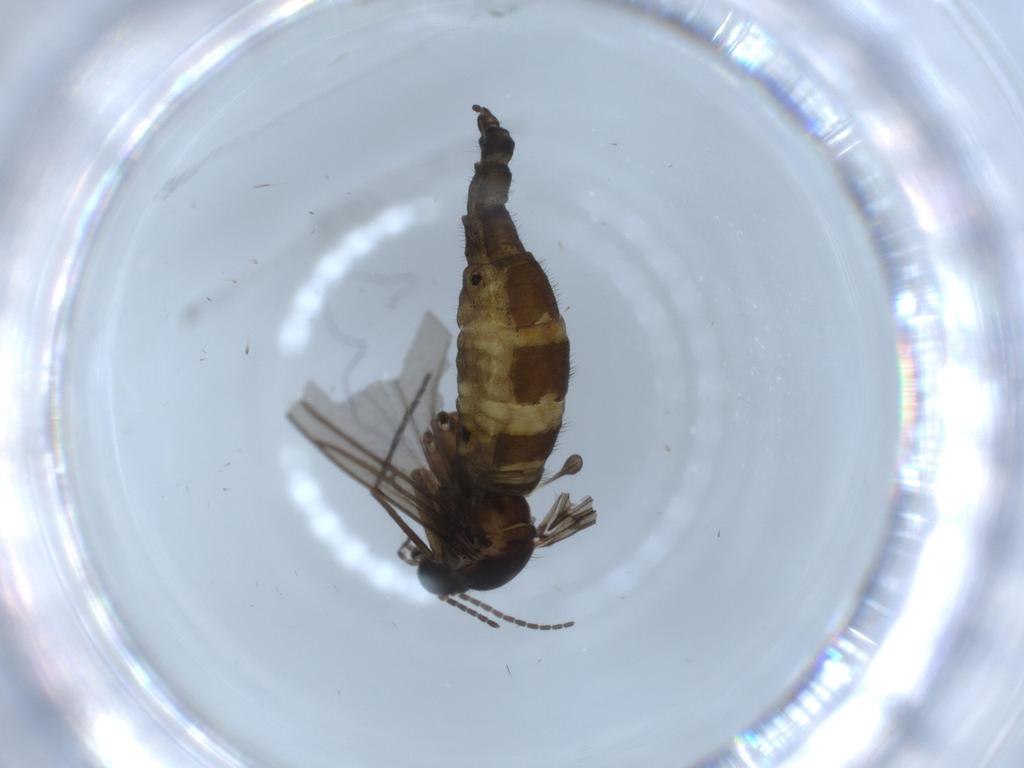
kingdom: Animalia
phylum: Arthropoda
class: Insecta
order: Diptera
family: Sciaridae
